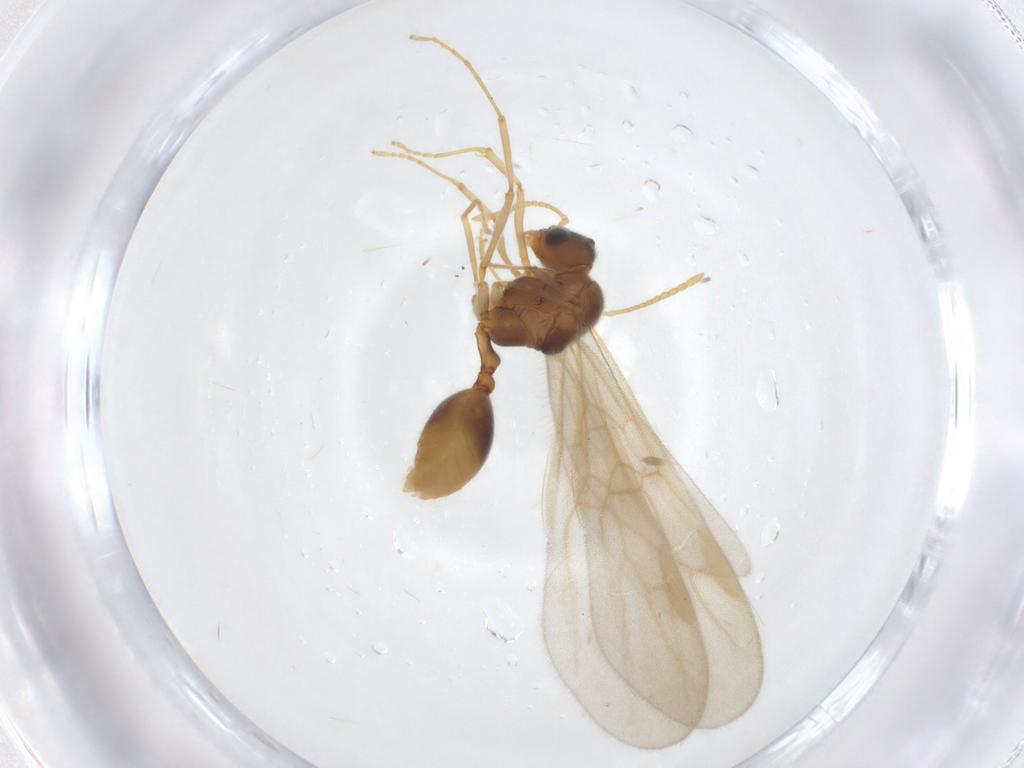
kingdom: Animalia
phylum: Arthropoda
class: Insecta
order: Hymenoptera
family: Formicidae
